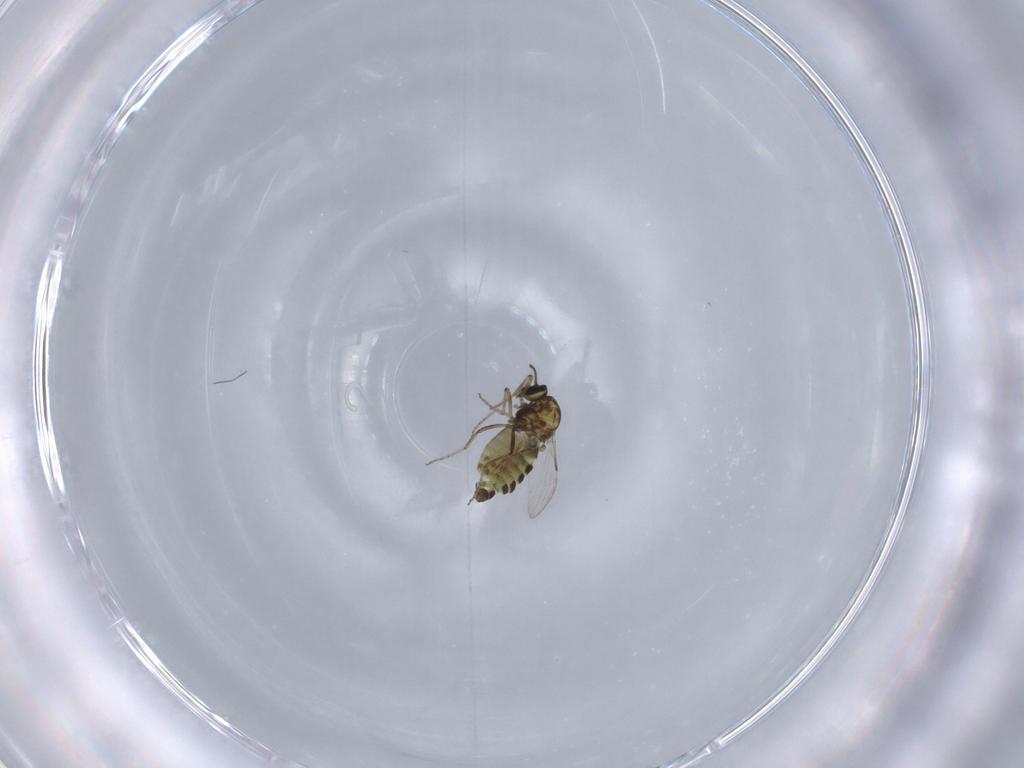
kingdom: Animalia
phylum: Arthropoda
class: Insecta
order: Diptera
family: Ceratopogonidae
